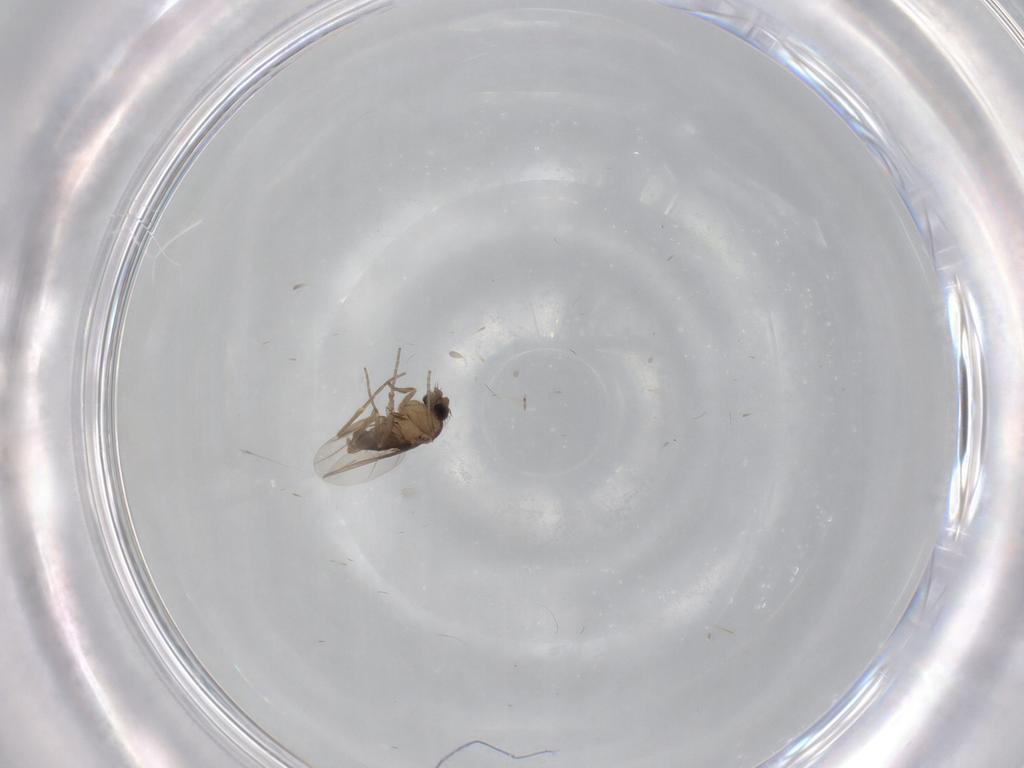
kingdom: Animalia
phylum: Arthropoda
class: Insecta
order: Diptera
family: Phoridae
